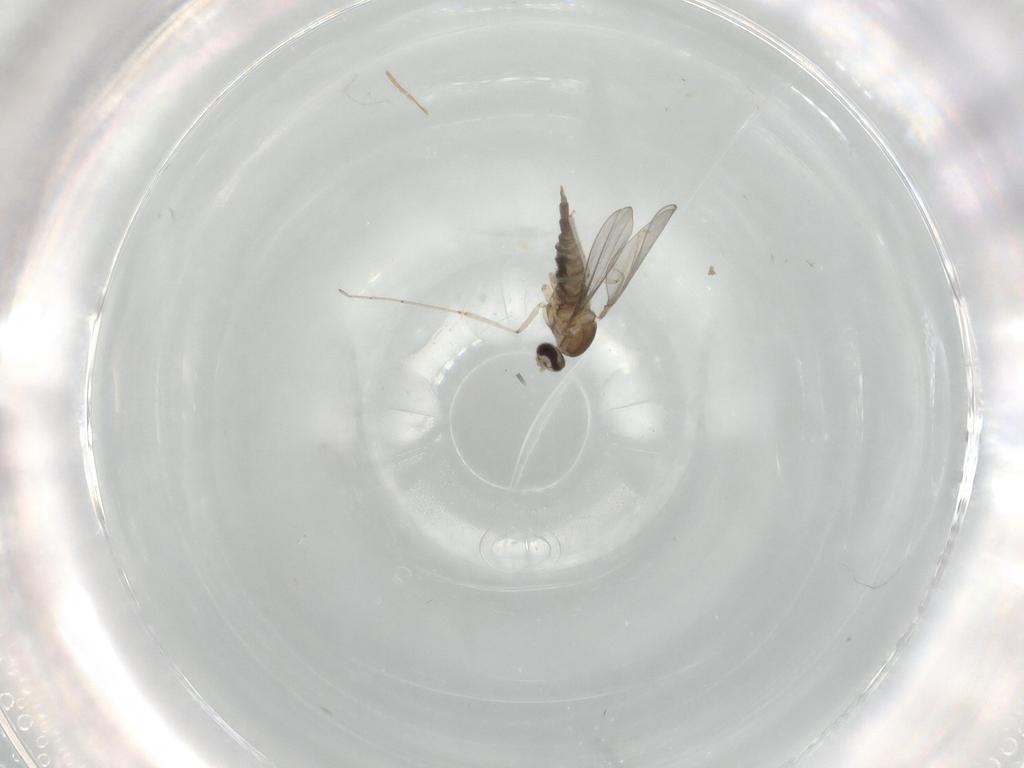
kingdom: Animalia
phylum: Arthropoda
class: Insecta
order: Diptera
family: Cecidomyiidae
